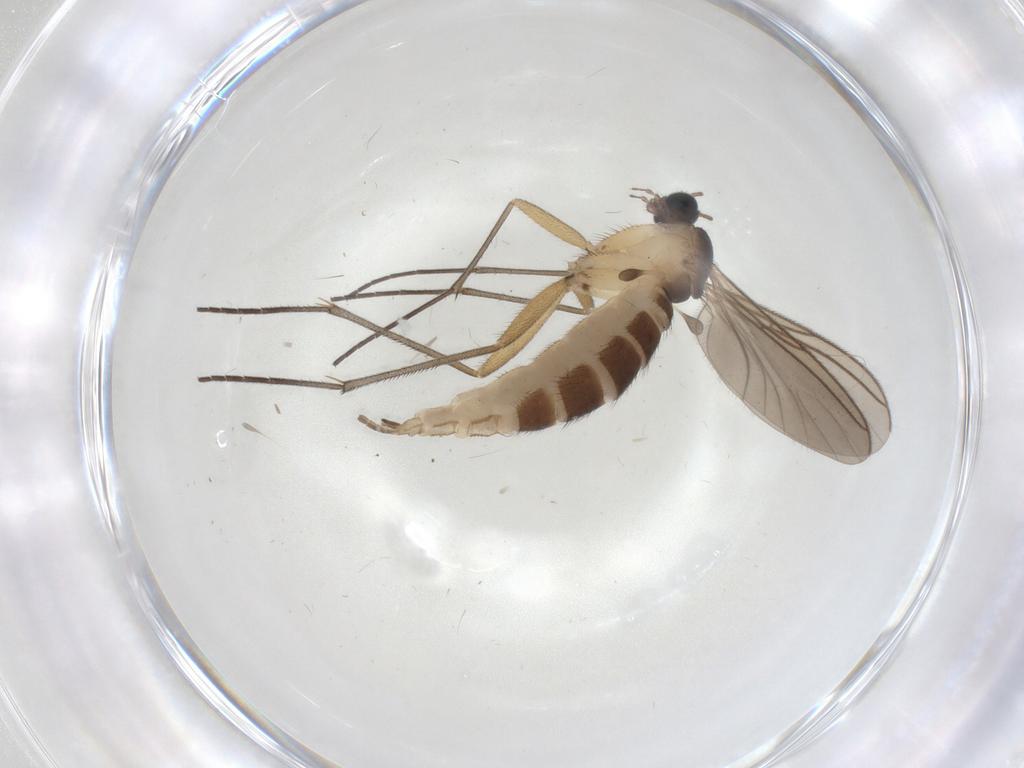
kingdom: Animalia
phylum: Arthropoda
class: Insecta
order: Diptera
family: Sciaridae
